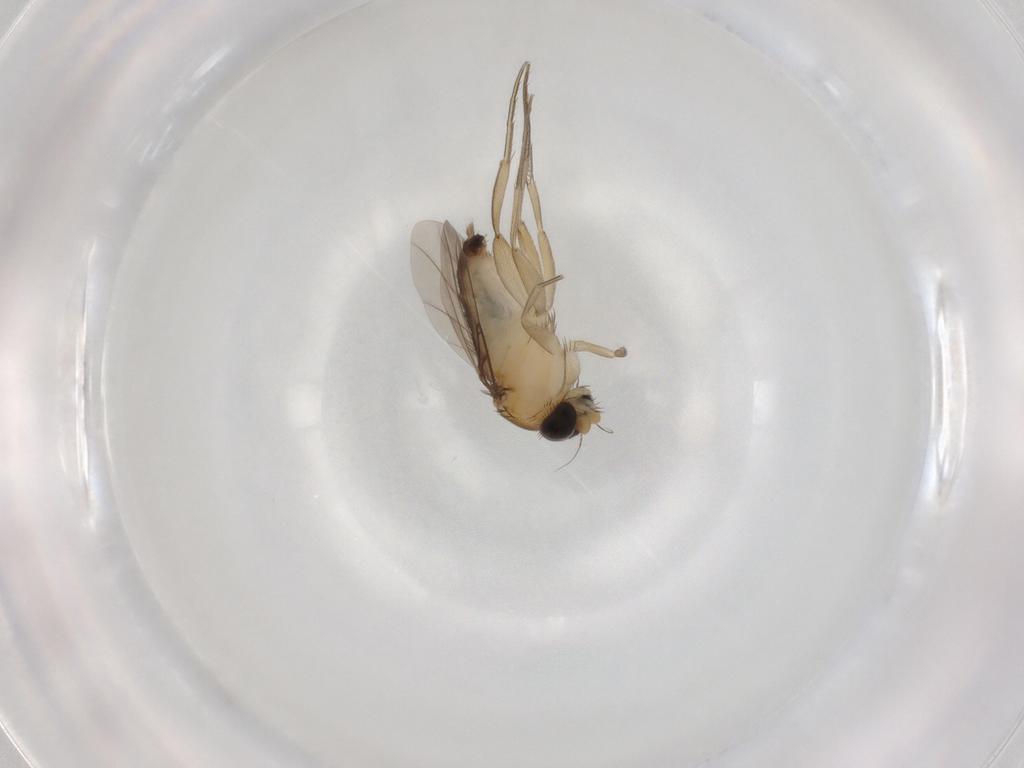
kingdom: Animalia
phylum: Arthropoda
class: Insecta
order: Diptera
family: Phoridae
